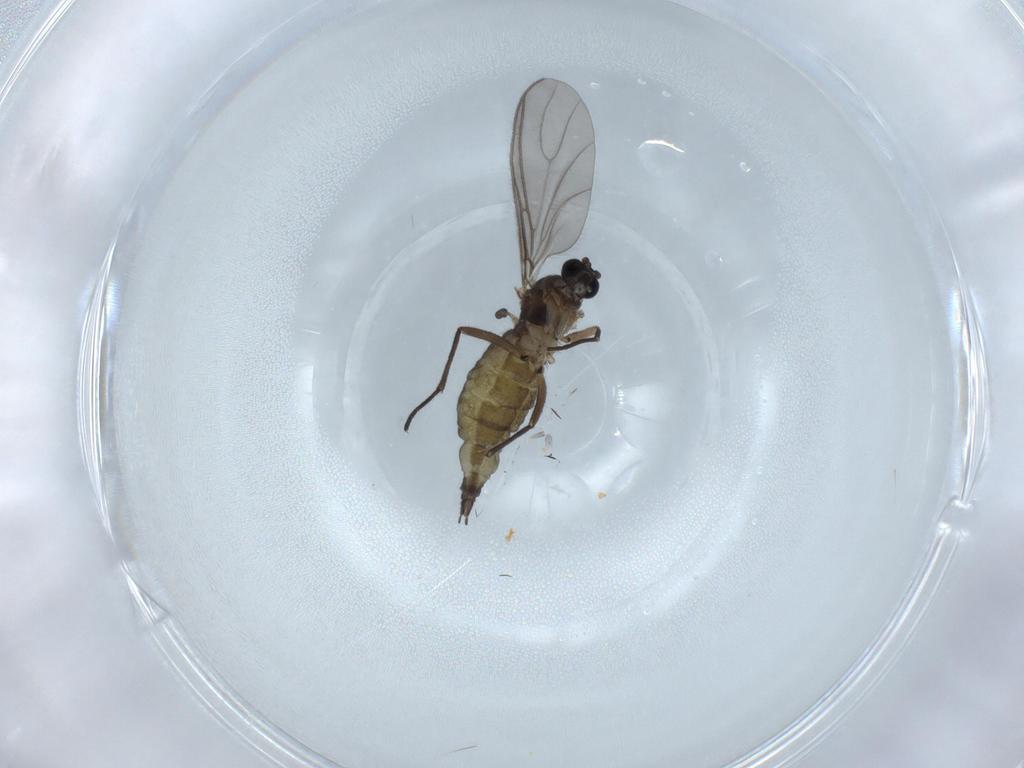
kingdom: Animalia
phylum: Arthropoda
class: Insecta
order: Diptera
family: Sciaridae
